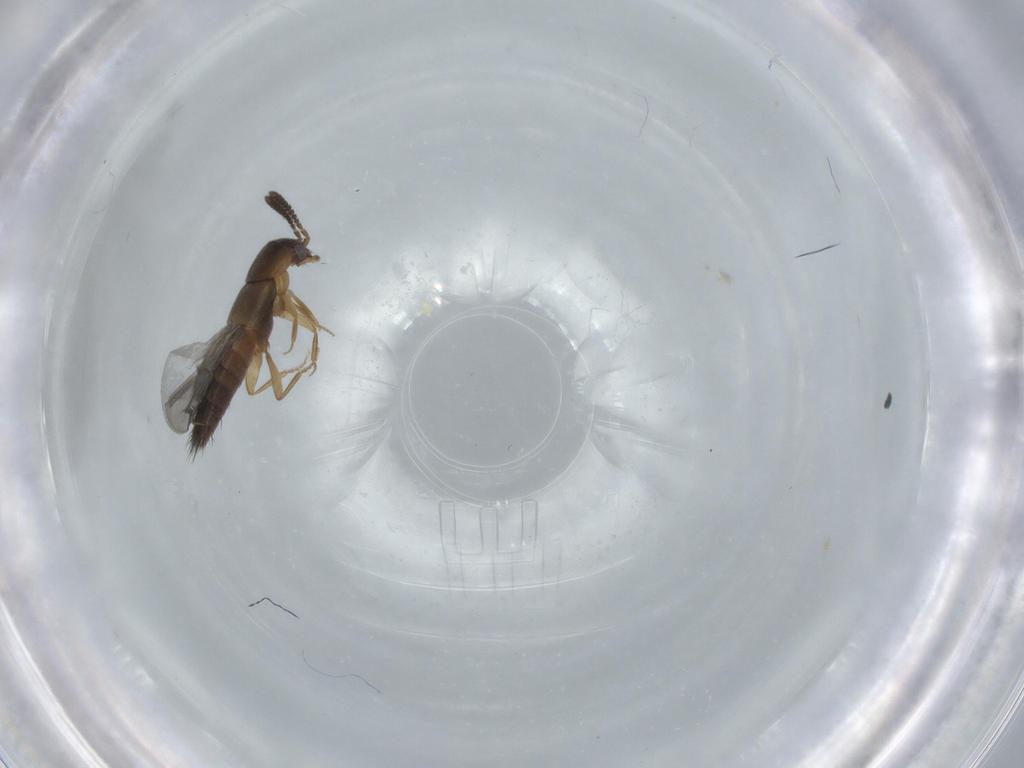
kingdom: Animalia
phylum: Arthropoda
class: Insecta
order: Coleoptera
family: Staphylinidae
